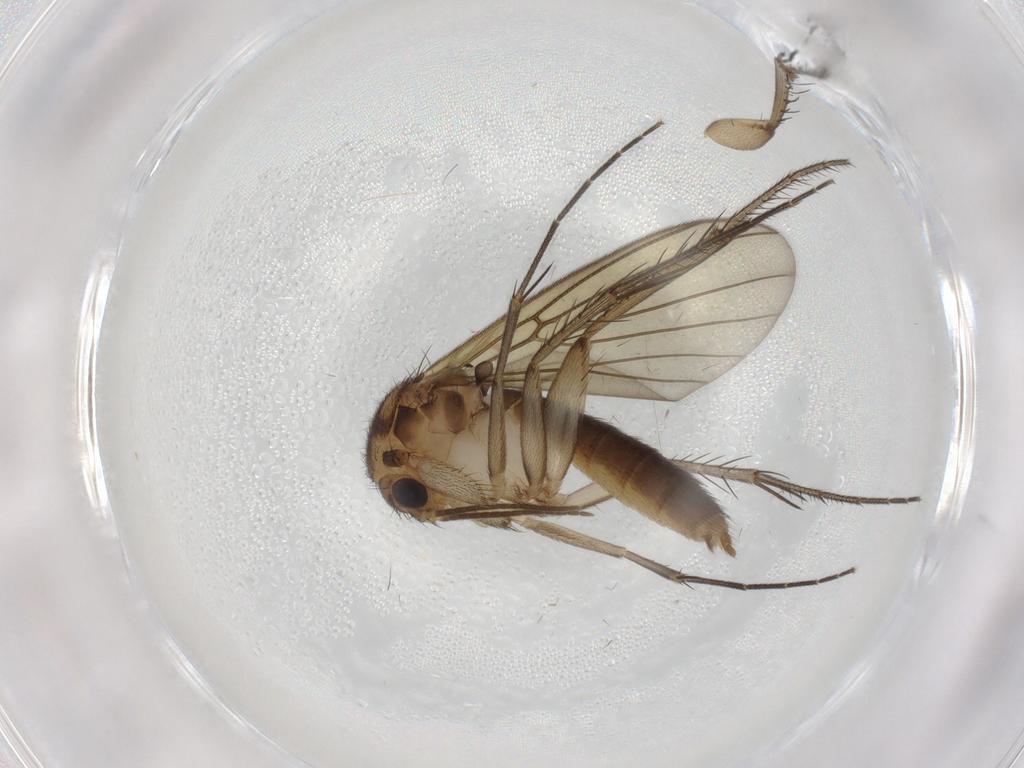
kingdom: Animalia
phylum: Arthropoda
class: Insecta
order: Diptera
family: Mycetophilidae
